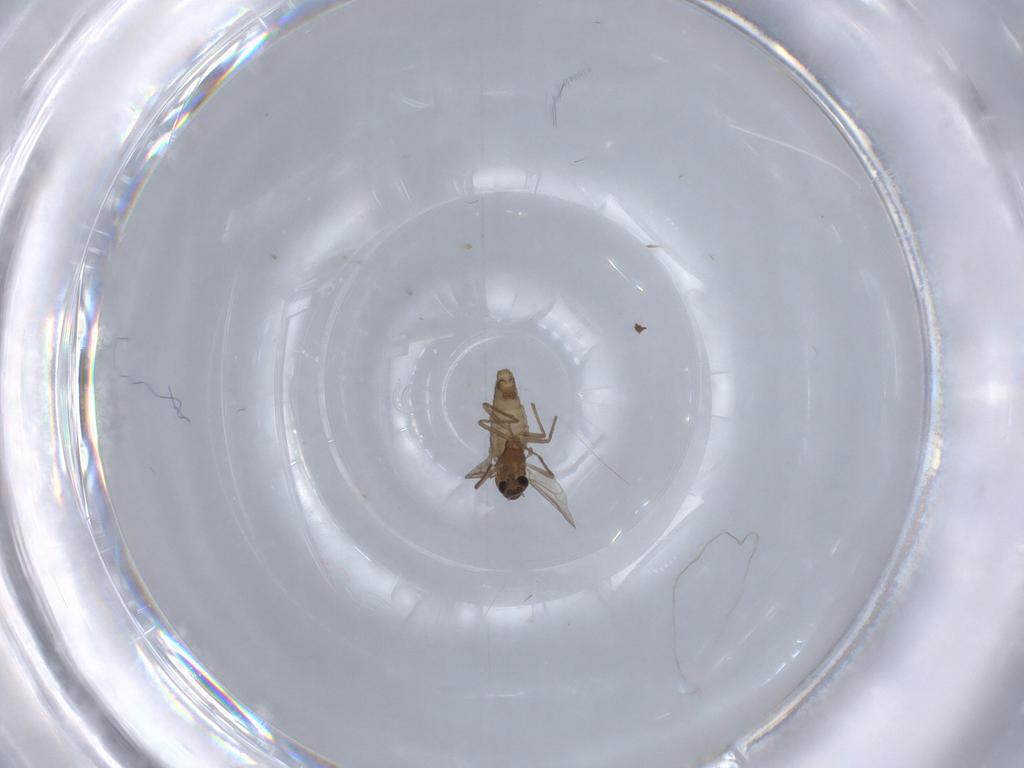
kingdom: Animalia
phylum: Arthropoda
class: Insecta
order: Diptera
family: Chironomidae
